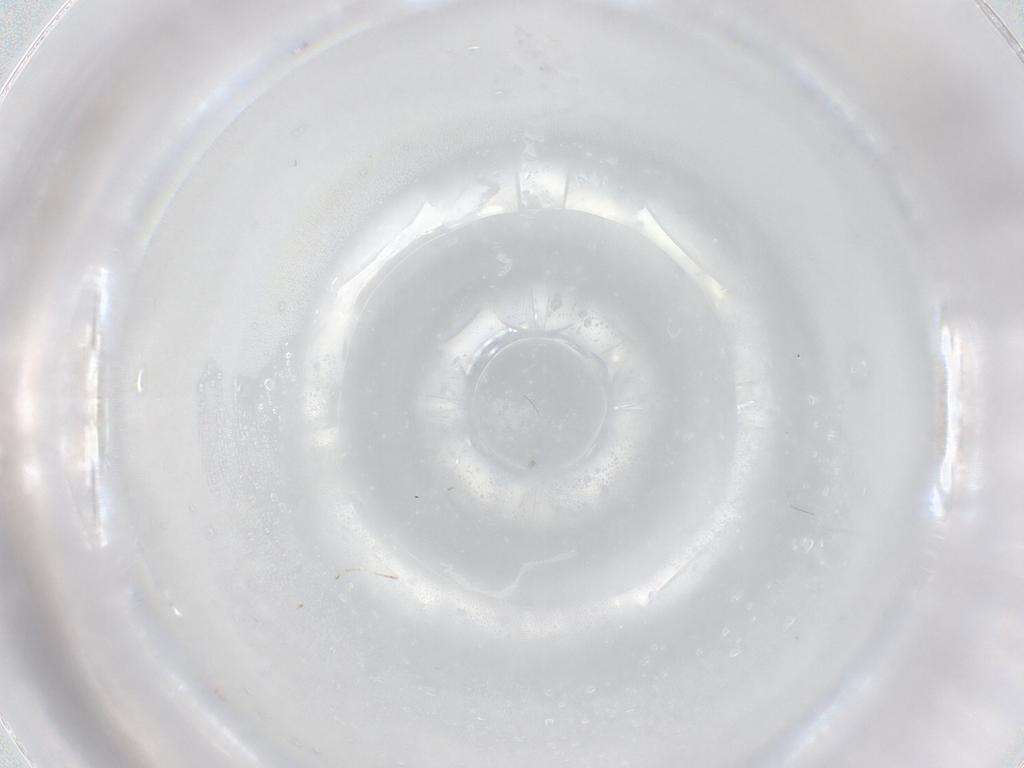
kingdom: Animalia
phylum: Arthropoda
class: Insecta
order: Diptera
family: Cecidomyiidae
